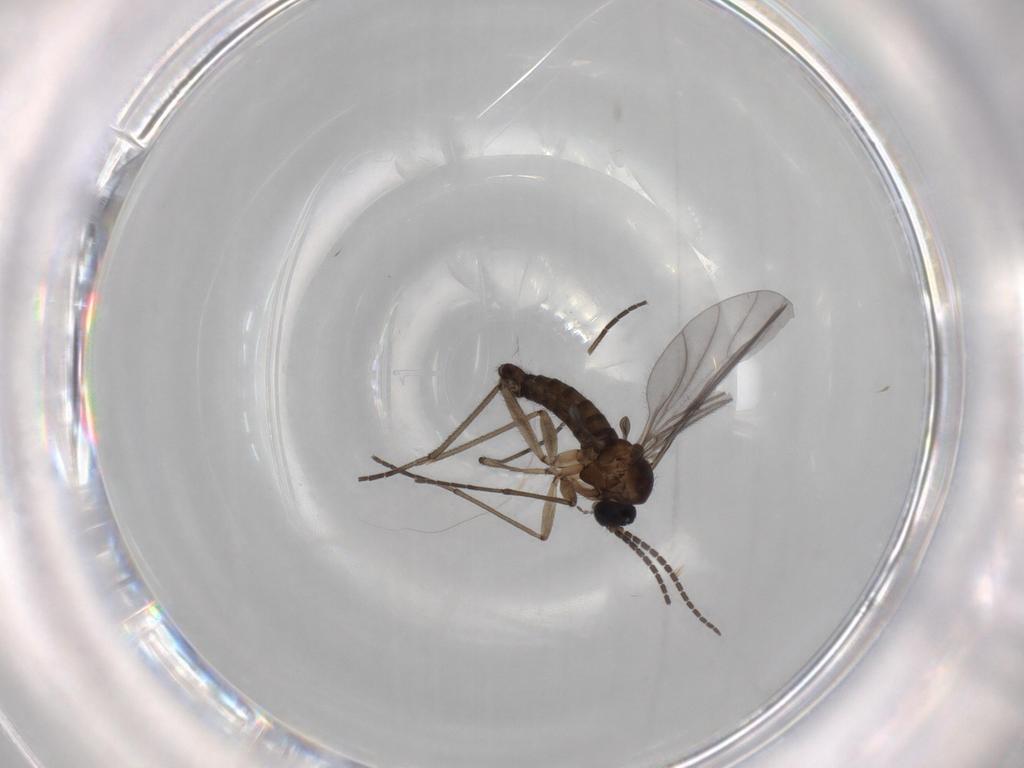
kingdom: Animalia
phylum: Arthropoda
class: Insecta
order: Diptera
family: Sciaridae
